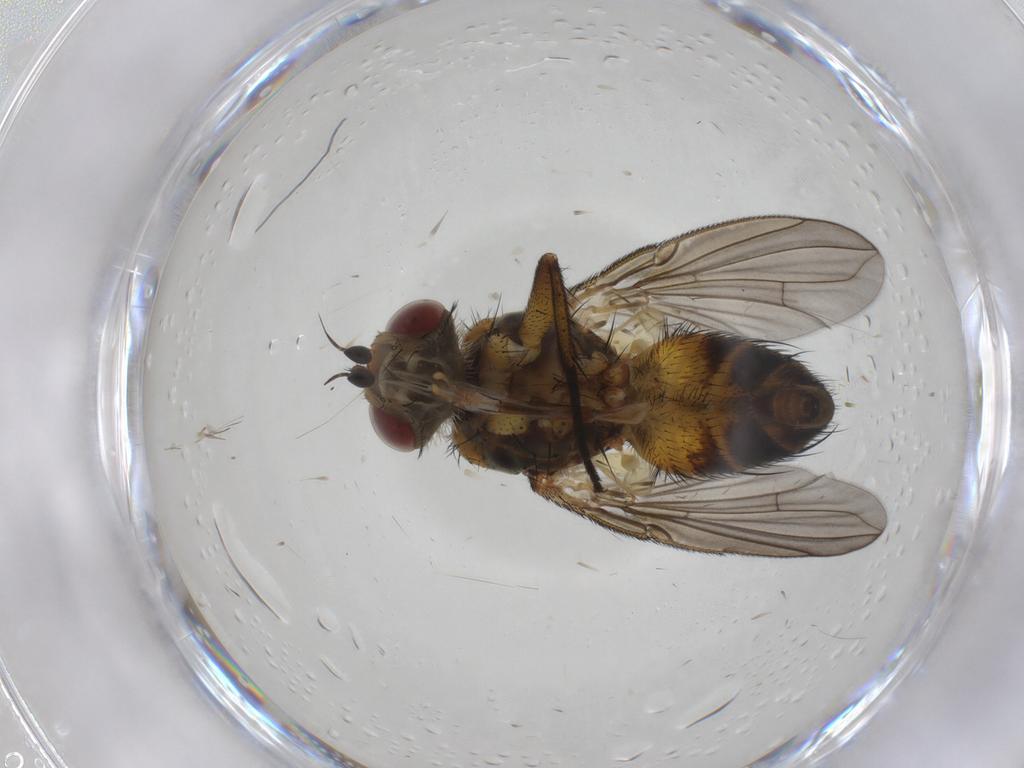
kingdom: Animalia
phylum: Arthropoda
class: Insecta
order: Diptera
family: Tachinidae
